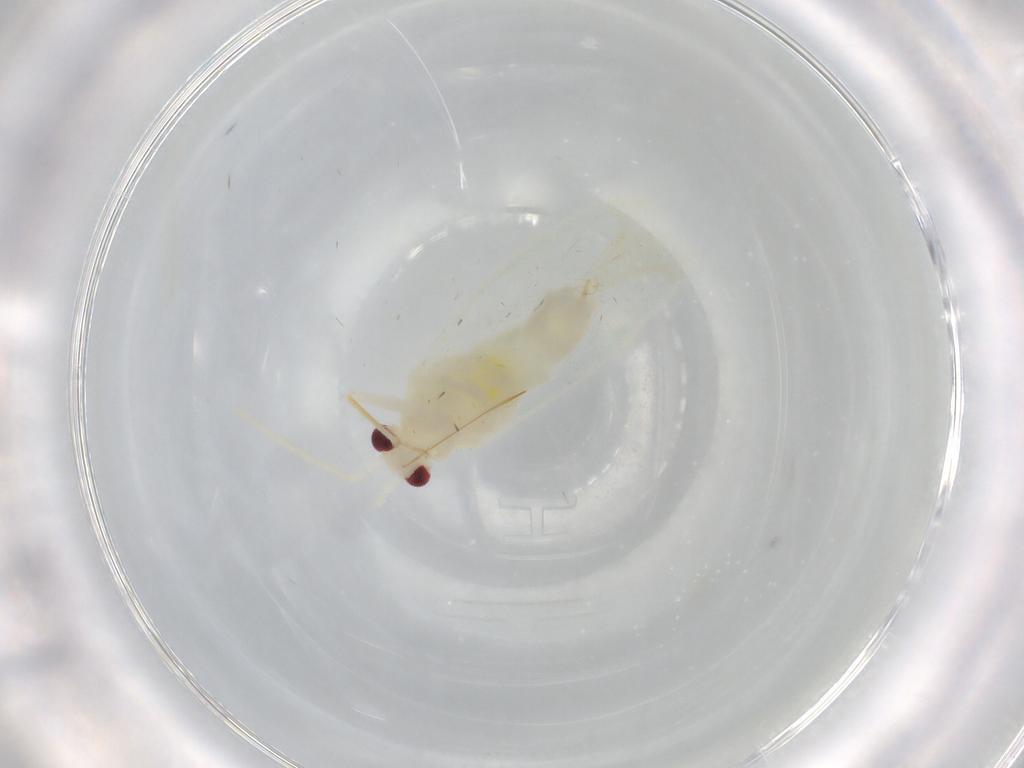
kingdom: Animalia
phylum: Arthropoda
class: Insecta
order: Hemiptera
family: Miridae
